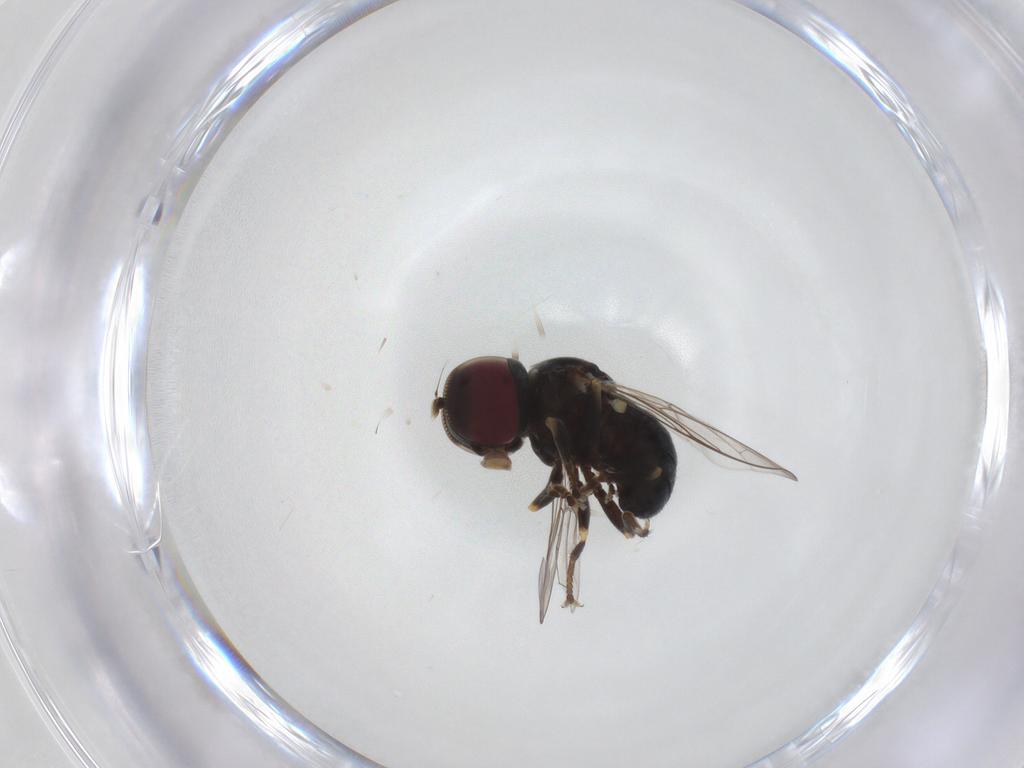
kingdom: Animalia
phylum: Arthropoda
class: Insecta
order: Diptera
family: Pipunculidae
